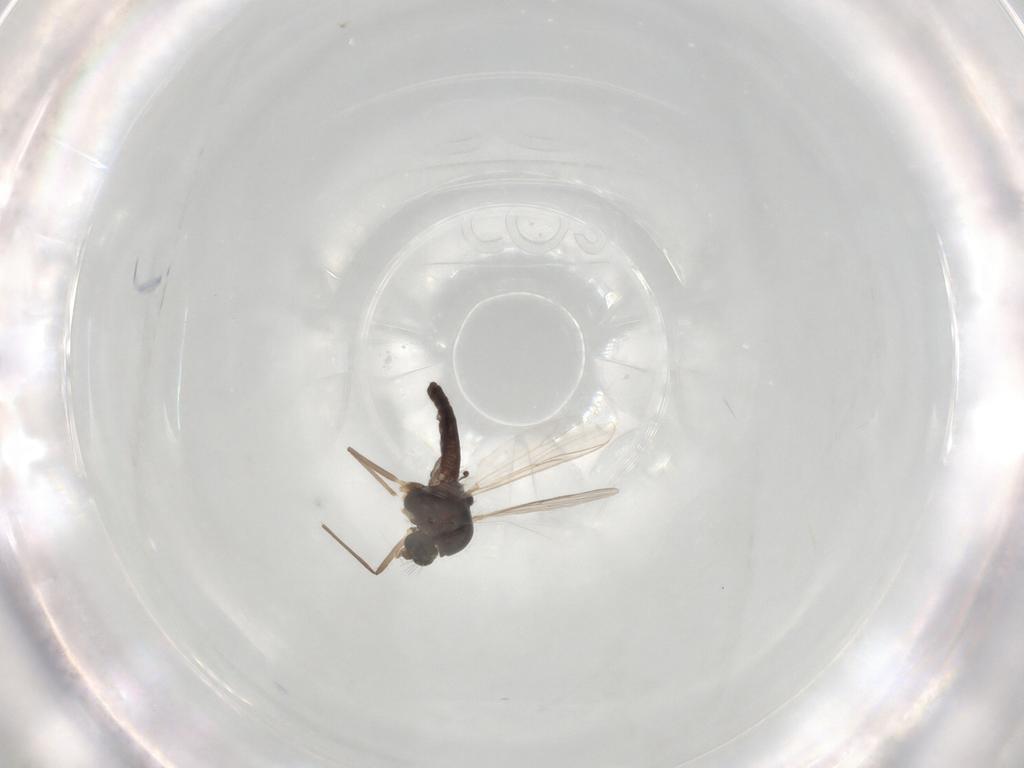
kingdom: Animalia
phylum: Arthropoda
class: Insecta
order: Diptera
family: Chironomidae
